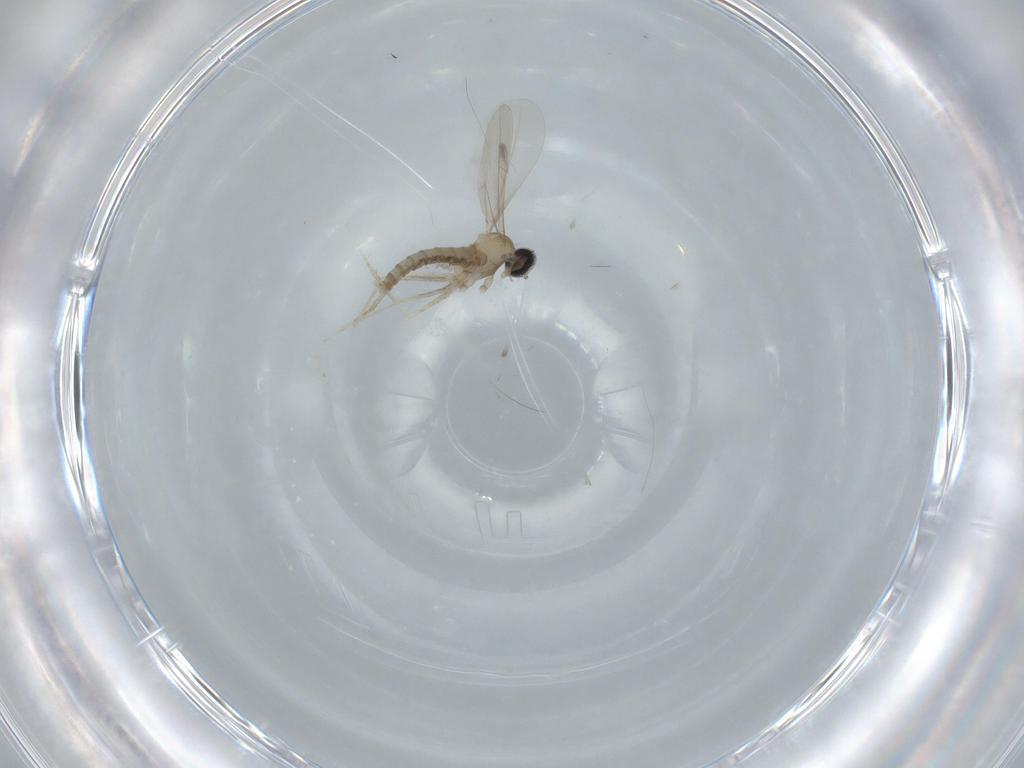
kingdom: Animalia
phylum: Arthropoda
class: Insecta
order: Diptera
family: Cecidomyiidae
